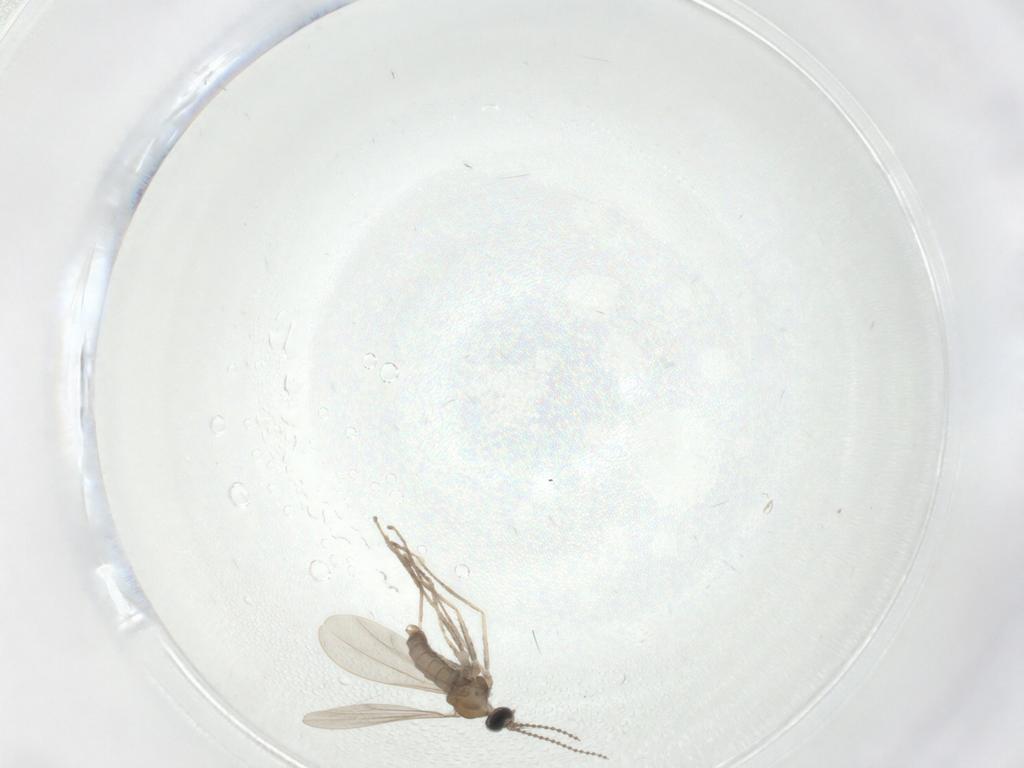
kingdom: Animalia
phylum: Arthropoda
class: Insecta
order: Diptera
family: Cecidomyiidae
